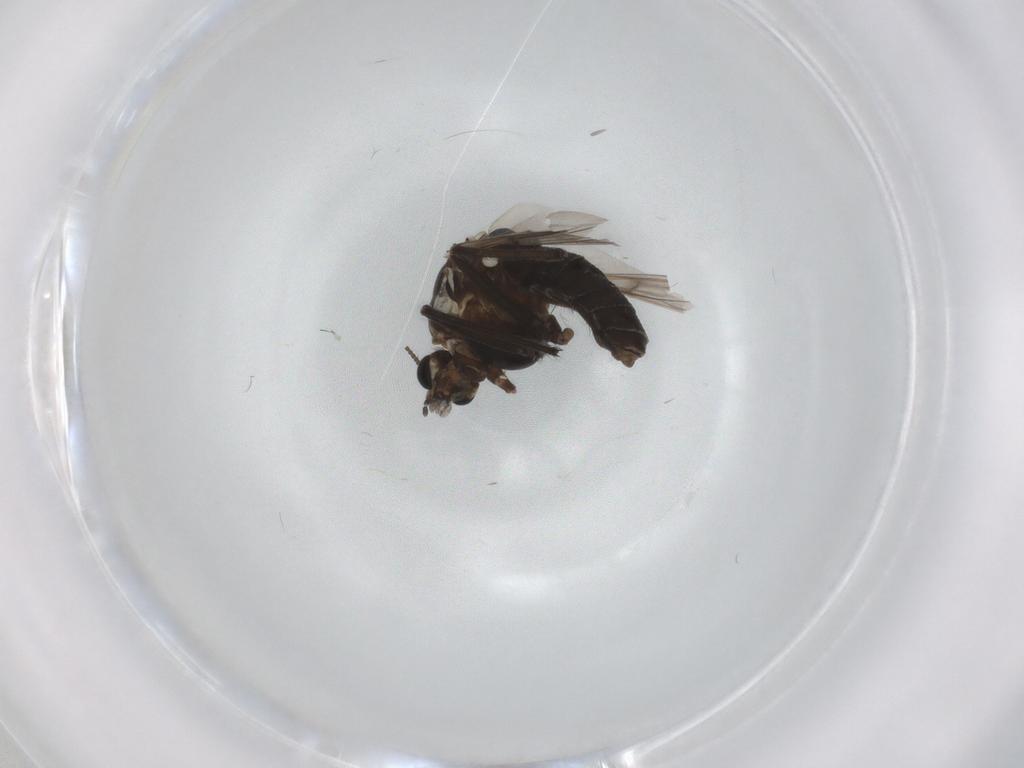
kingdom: Animalia
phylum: Arthropoda
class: Insecta
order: Diptera
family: Chironomidae
